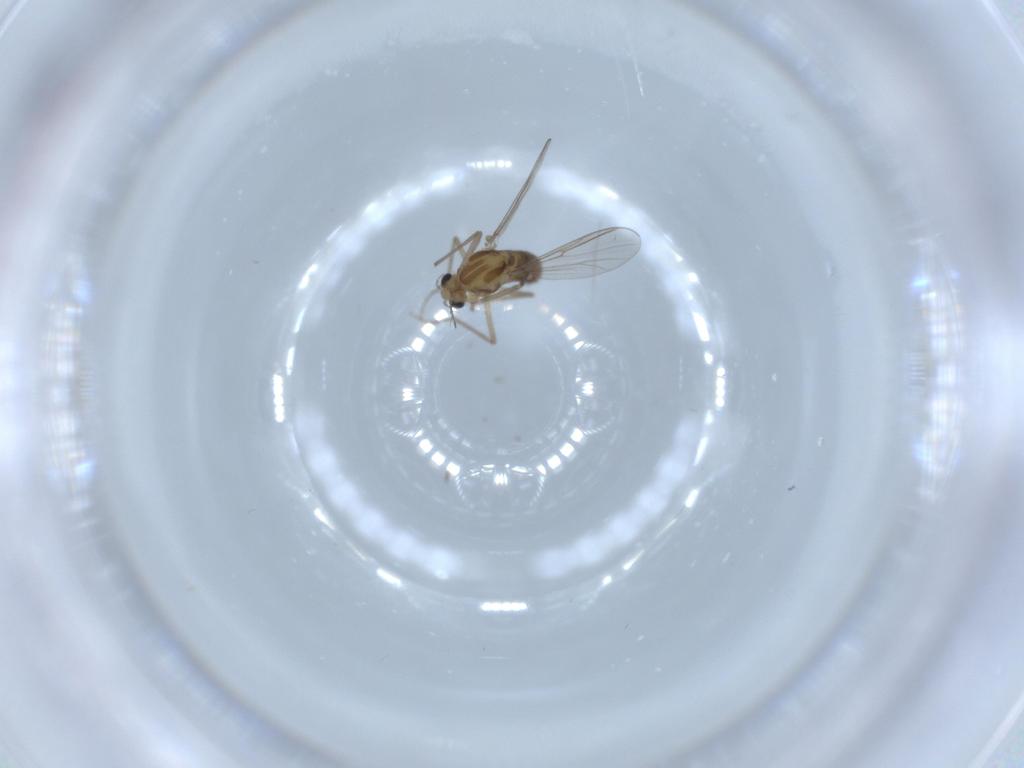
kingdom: Animalia
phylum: Arthropoda
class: Insecta
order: Diptera
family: Chironomidae
